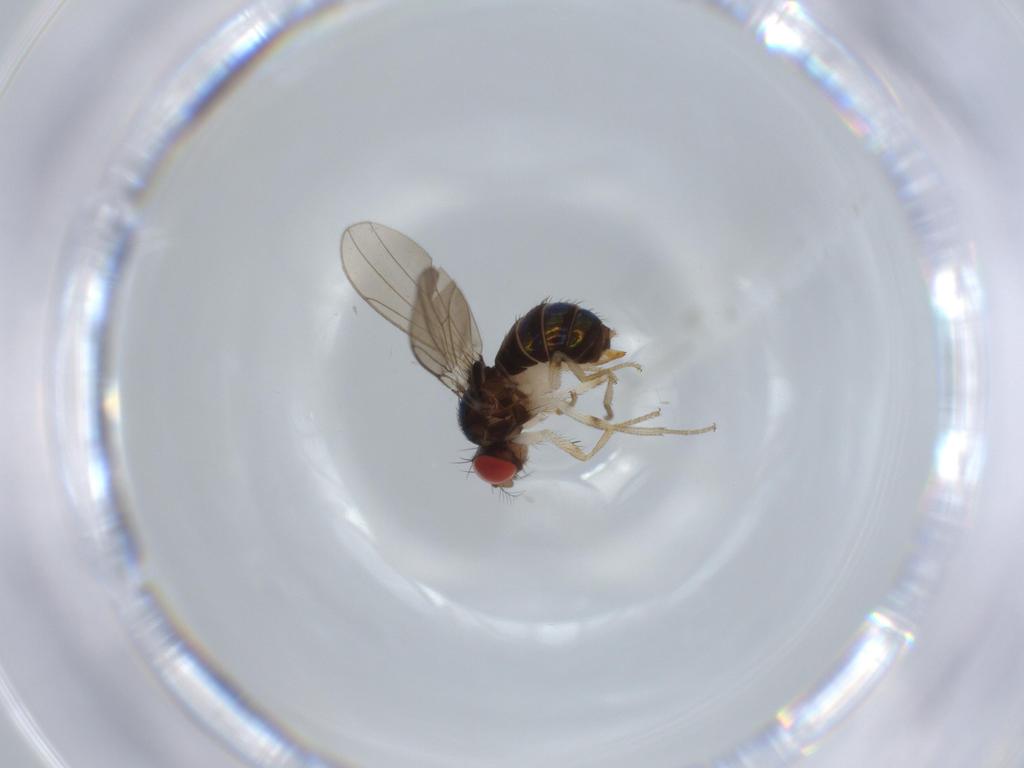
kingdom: Animalia
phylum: Arthropoda
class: Insecta
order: Diptera
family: Drosophilidae
